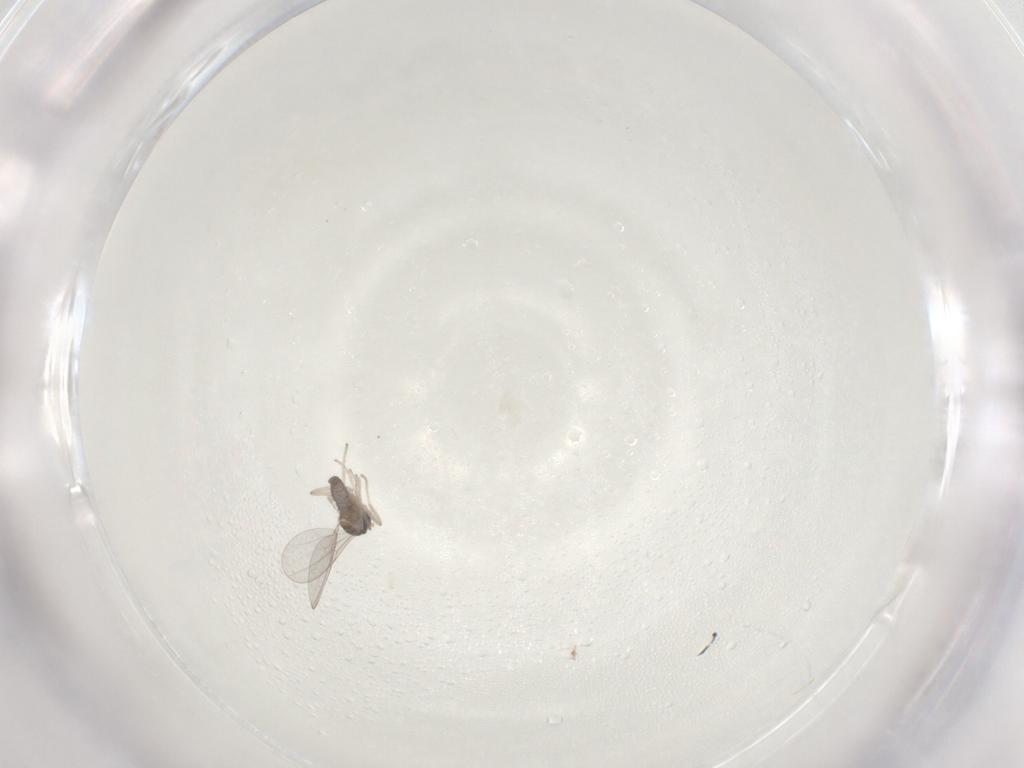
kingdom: Animalia
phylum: Arthropoda
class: Insecta
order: Diptera
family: Cecidomyiidae
